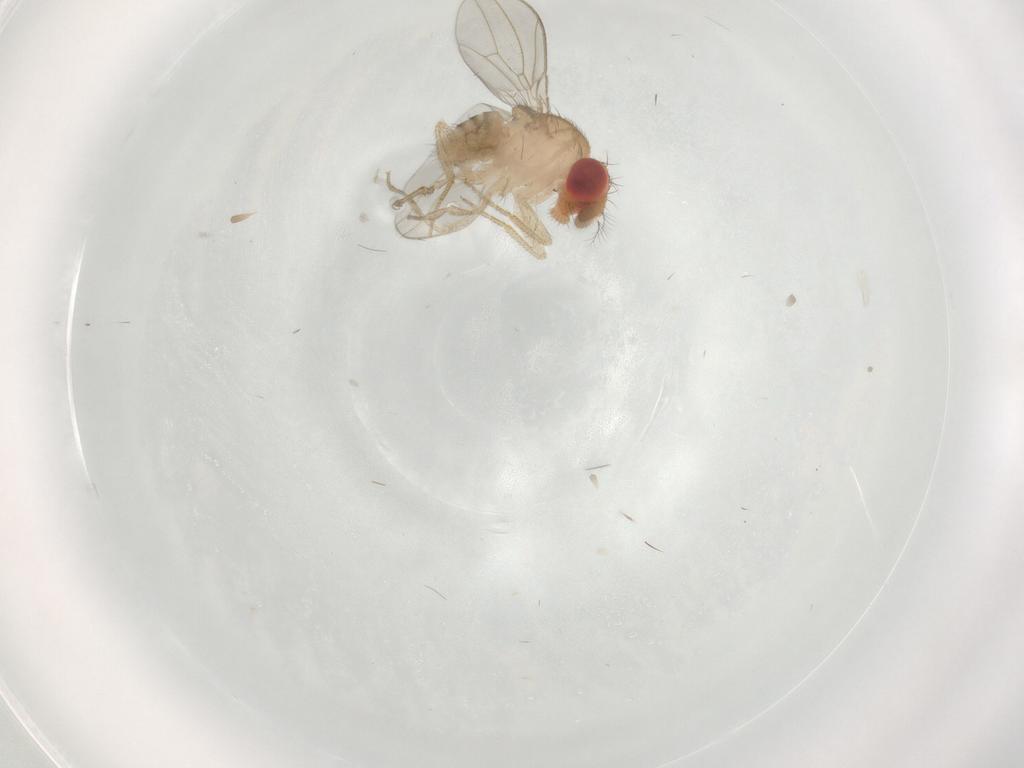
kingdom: Animalia
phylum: Arthropoda
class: Insecta
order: Diptera
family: Drosophilidae
